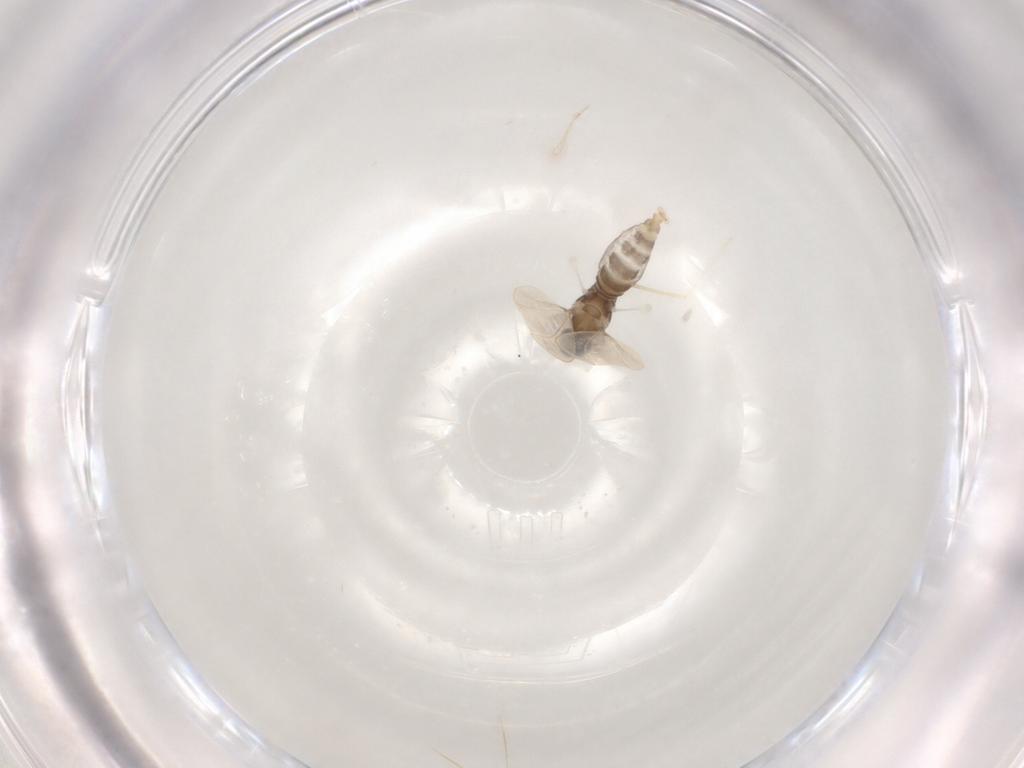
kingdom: Animalia
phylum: Arthropoda
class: Insecta
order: Diptera
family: Cecidomyiidae
